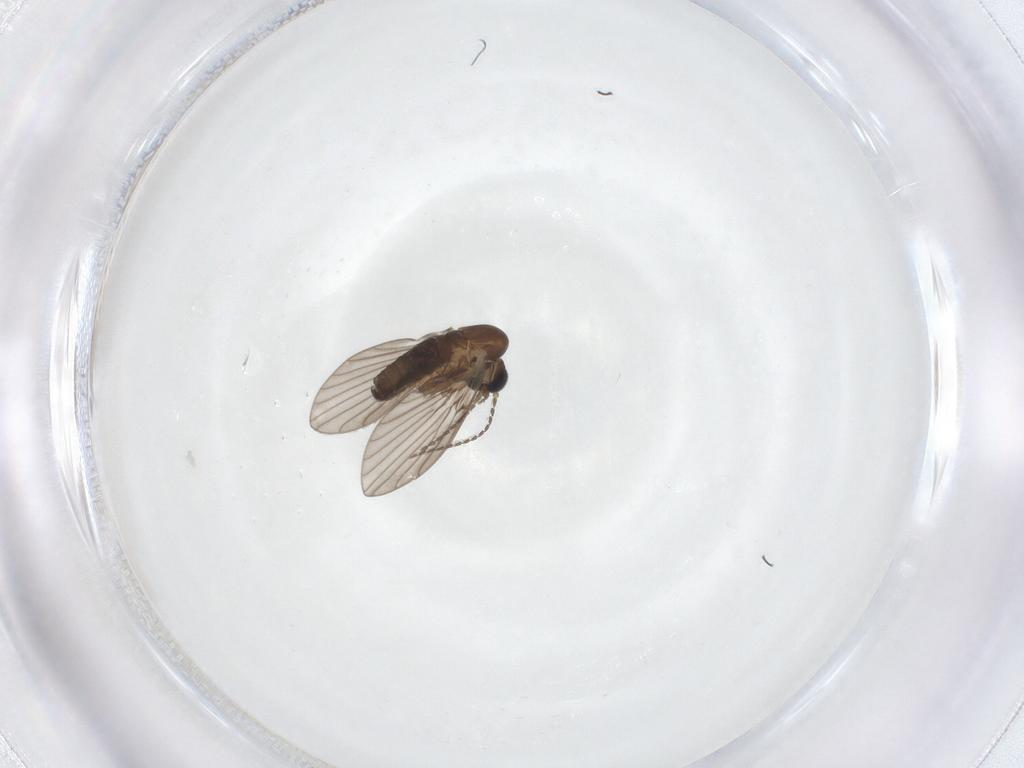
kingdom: Animalia
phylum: Arthropoda
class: Insecta
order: Diptera
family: Psychodidae
